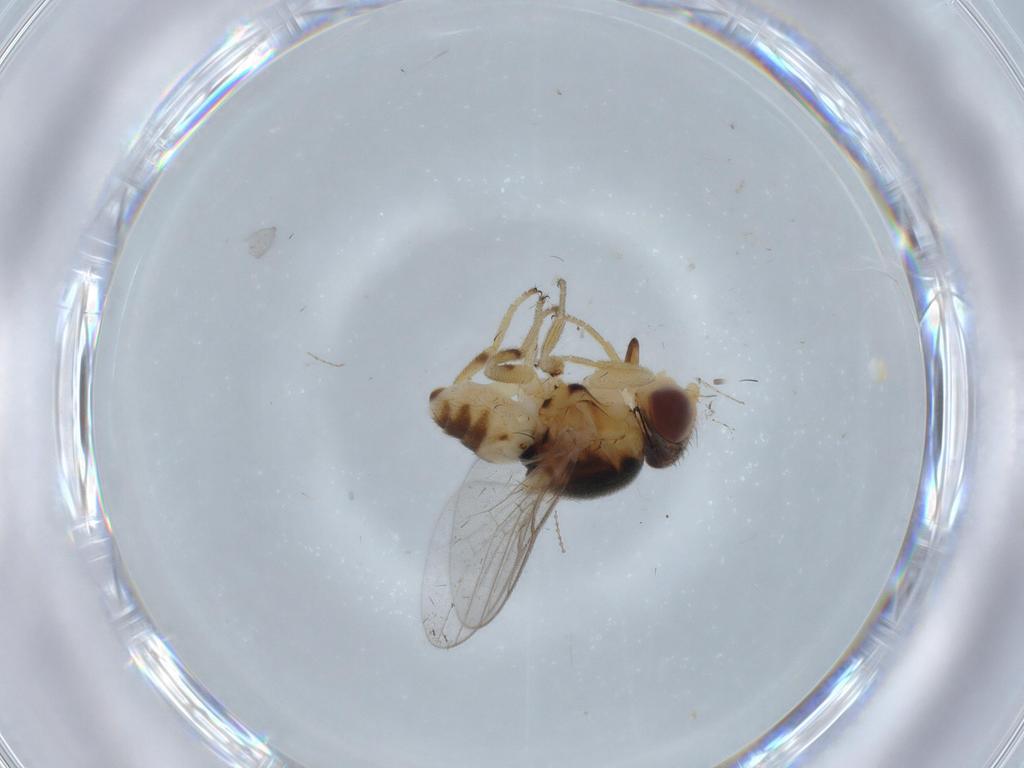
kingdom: Animalia
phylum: Arthropoda
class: Insecta
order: Diptera
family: Chloropidae
